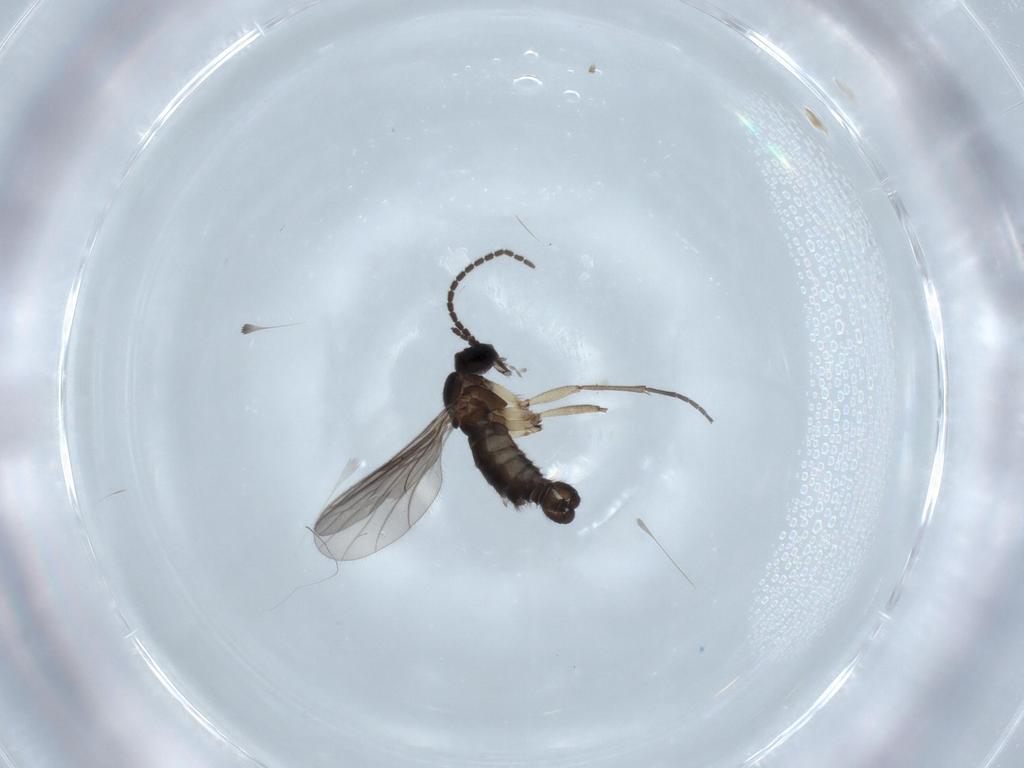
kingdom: Animalia
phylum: Arthropoda
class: Insecta
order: Diptera
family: Sciaridae
